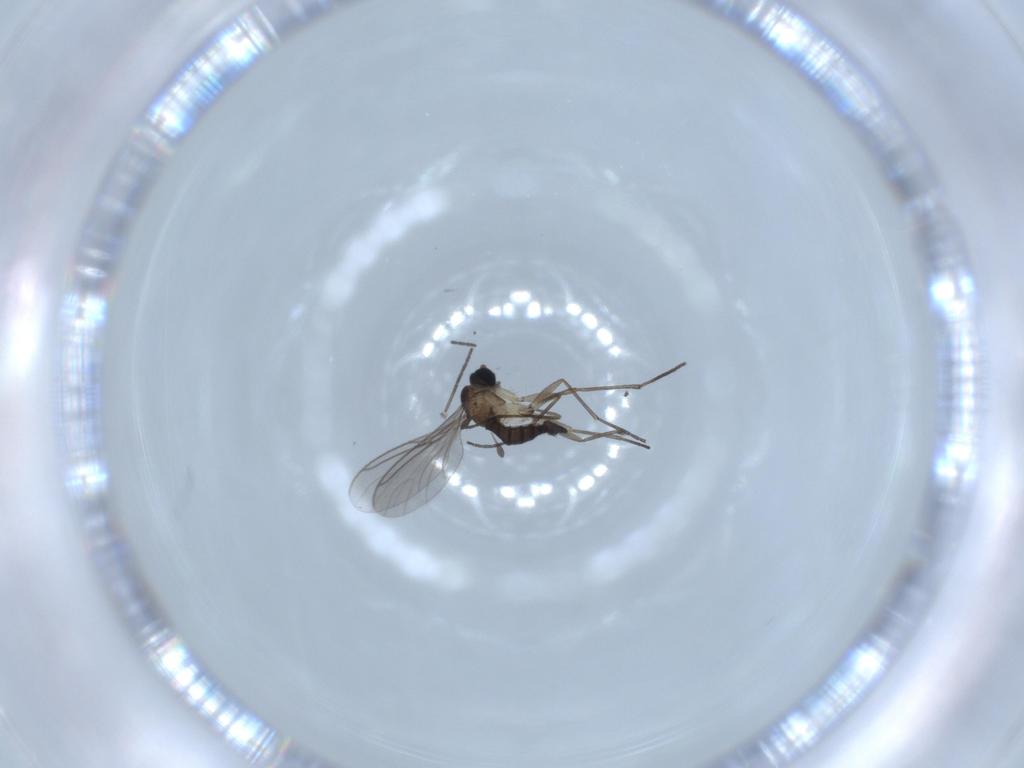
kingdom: Animalia
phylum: Arthropoda
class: Insecta
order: Diptera
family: Sciaridae
